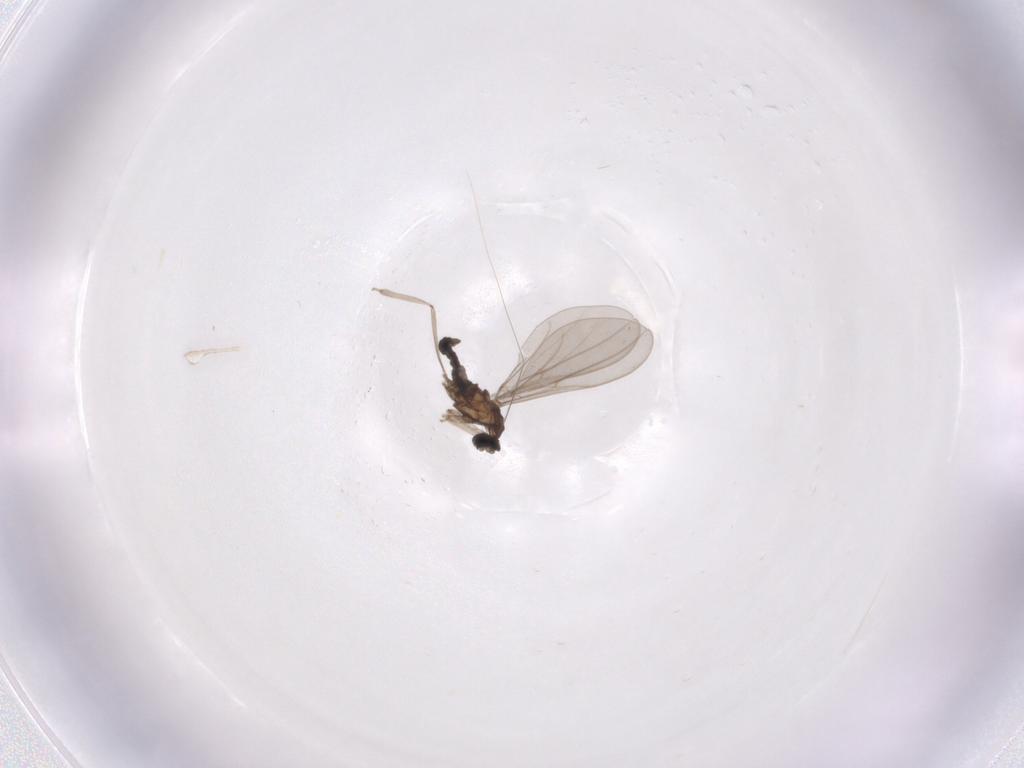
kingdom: Animalia
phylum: Arthropoda
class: Insecta
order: Diptera
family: Cecidomyiidae
